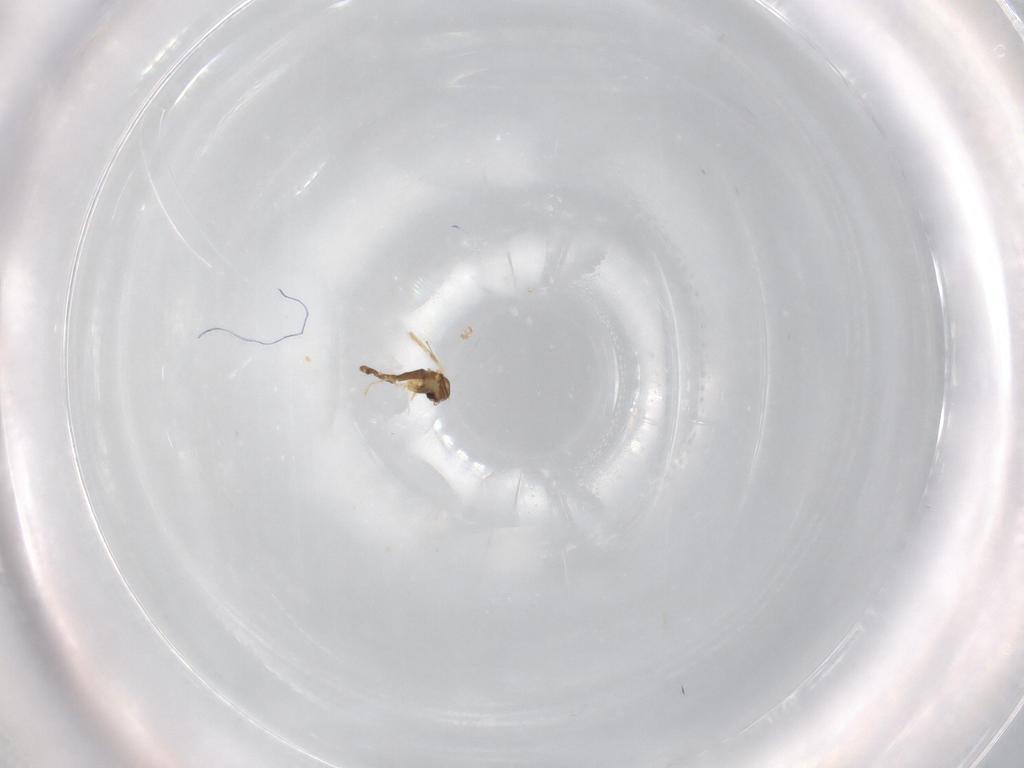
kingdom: Animalia
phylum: Arthropoda
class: Insecta
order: Diptera
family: Chironomidae
